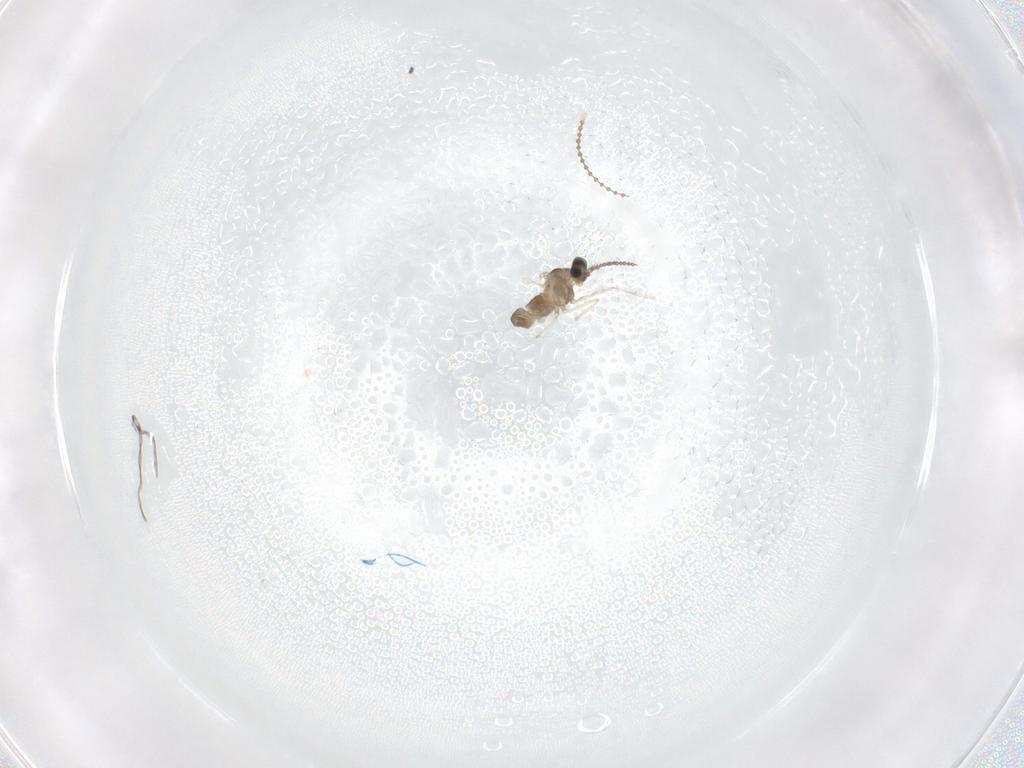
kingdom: Animalia
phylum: Arthropoda
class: Insecta
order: Diptera
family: Cecidomyiidae
